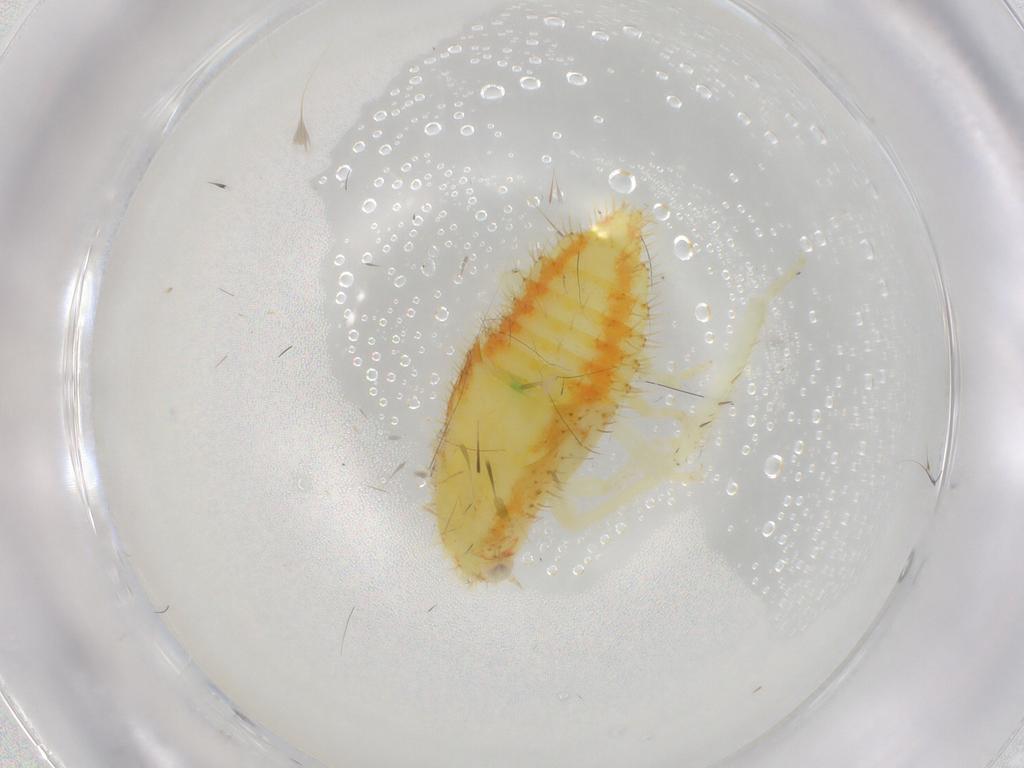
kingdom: Animalia
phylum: Arthropoda
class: Insecta
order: Hemiptera
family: Cicadellidae
